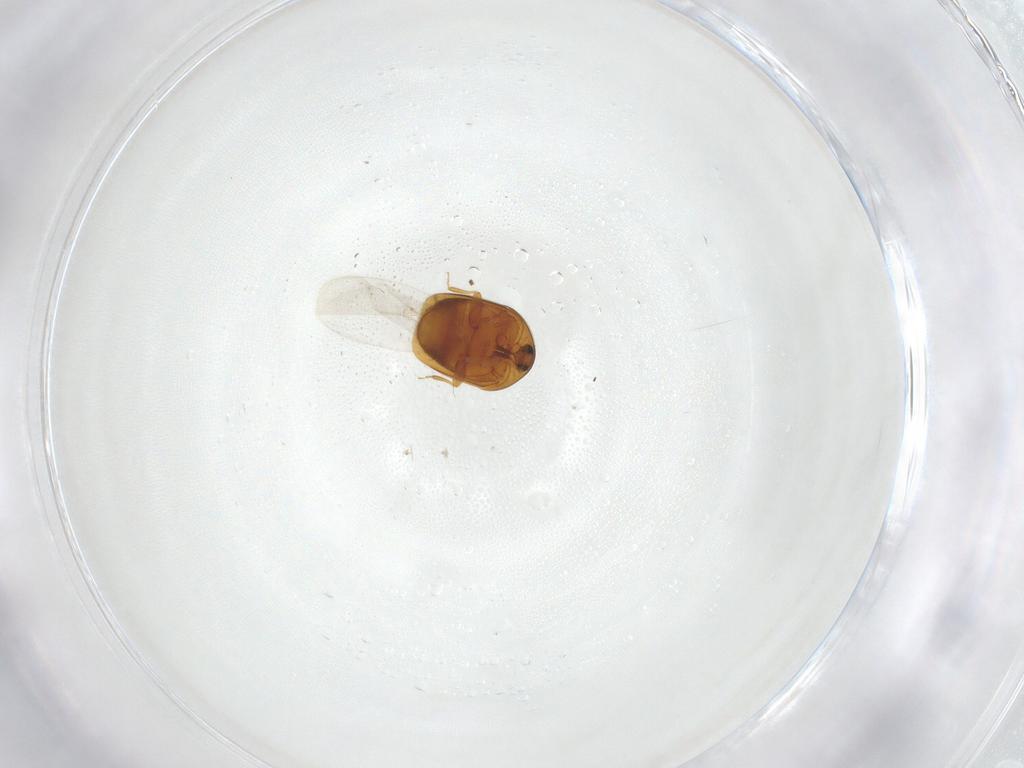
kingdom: Animalia
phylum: Arthropoda
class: Insecta
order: Coleoptera
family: Corylophidae
